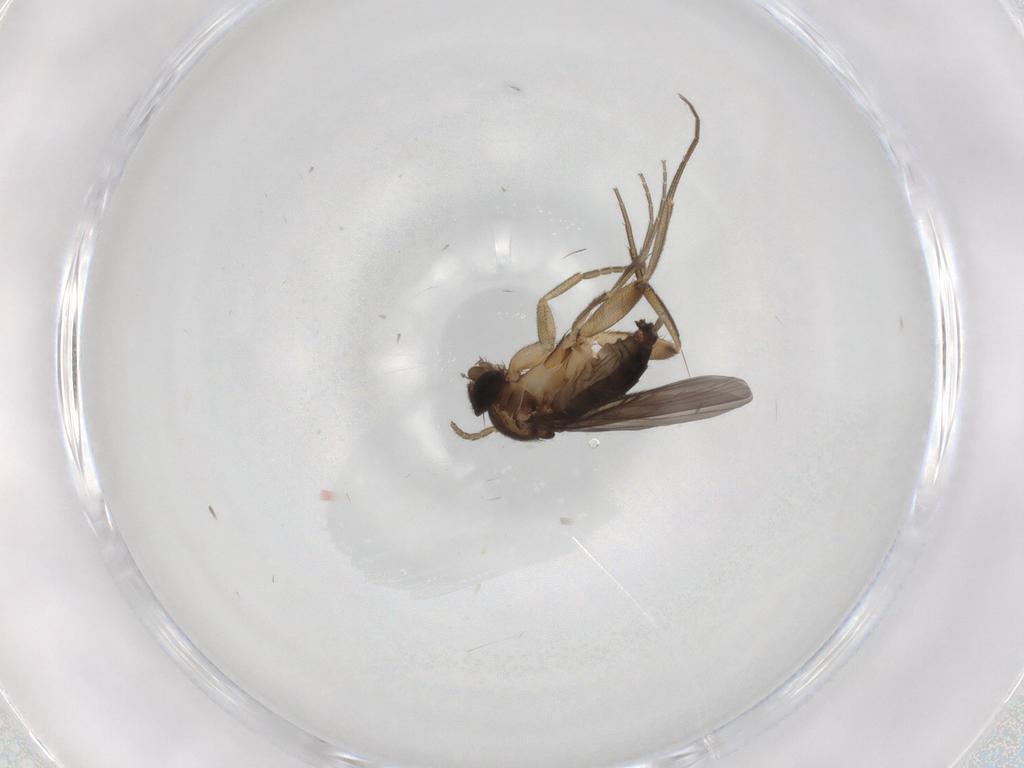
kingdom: Animalia
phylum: Arthropoda
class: Insecta
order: Diptera
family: Phoridae
